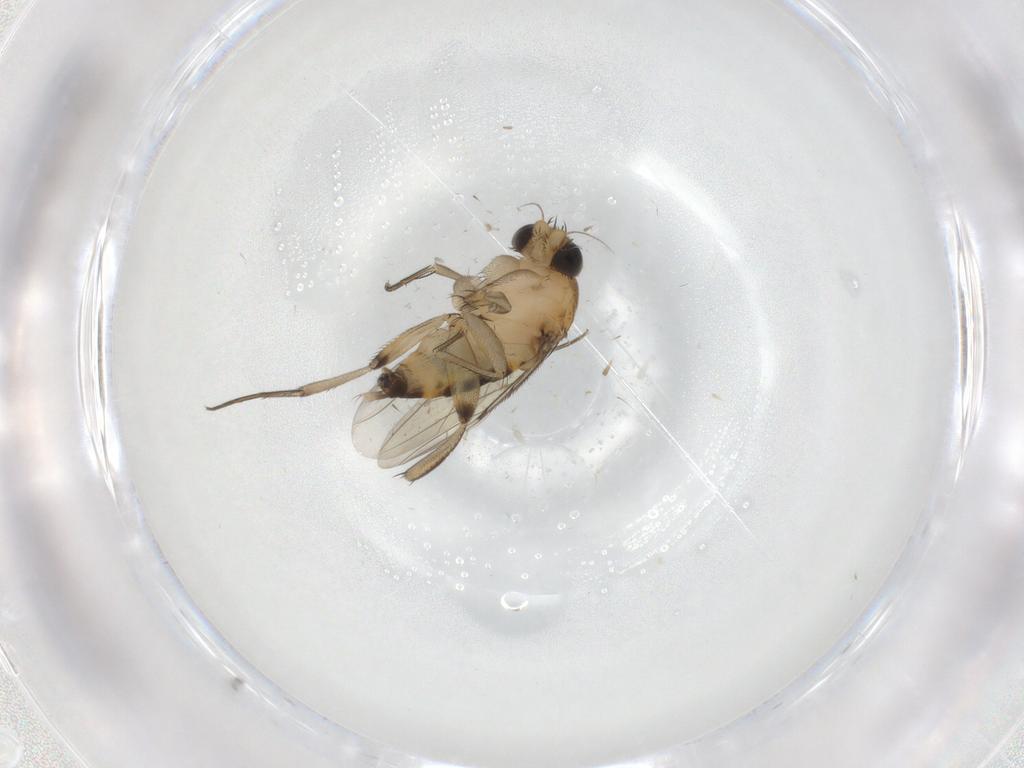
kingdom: Animalia
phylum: Arthropoda
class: Insecta
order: Diptera
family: Phoridae
